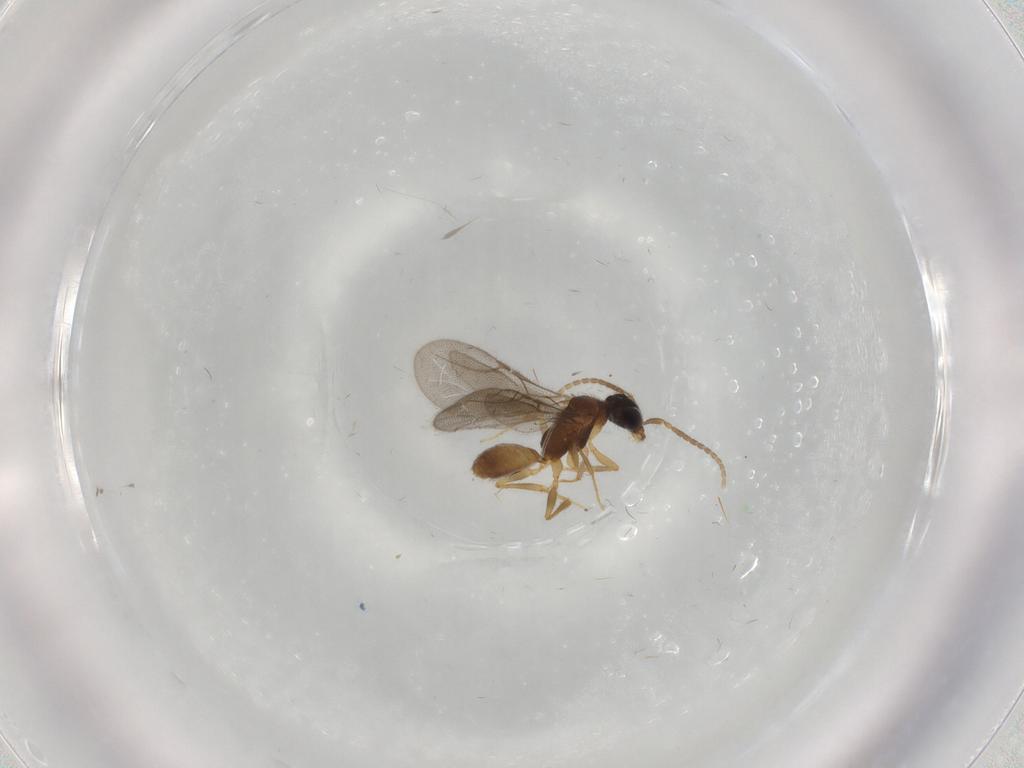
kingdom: Animalia
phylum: Arthropoda
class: Insecta
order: Hymenoptera
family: Bethylidae
